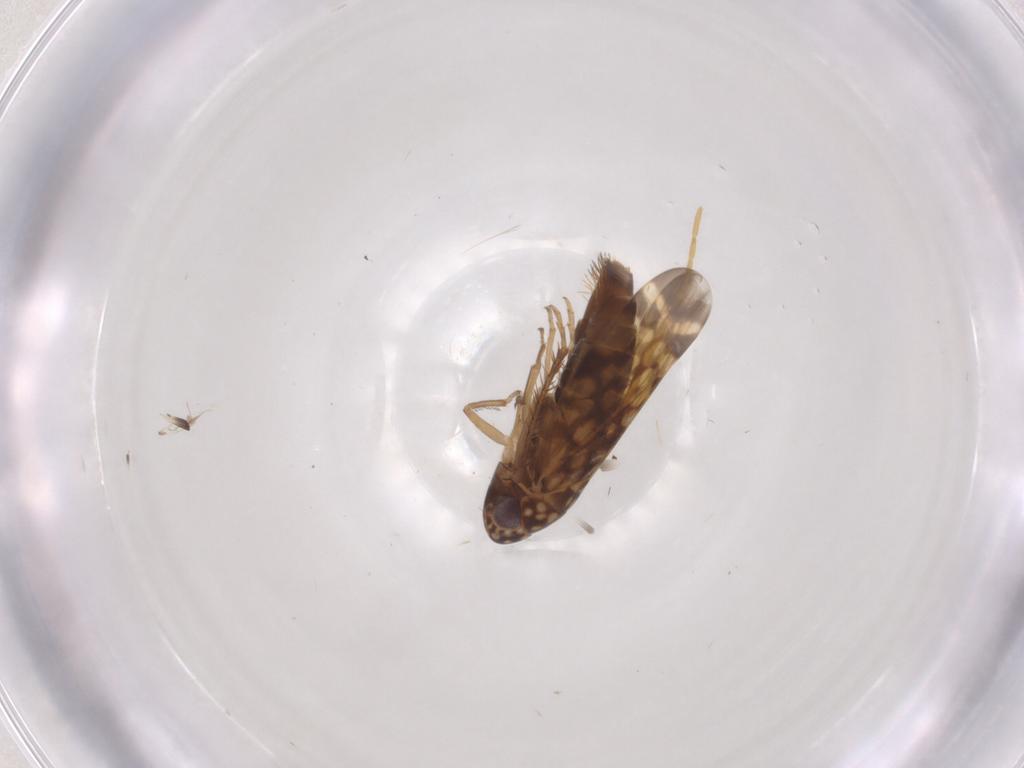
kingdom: Animalia
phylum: Arthropoda
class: Insecta
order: Hemiptera
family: Cicadellidae
